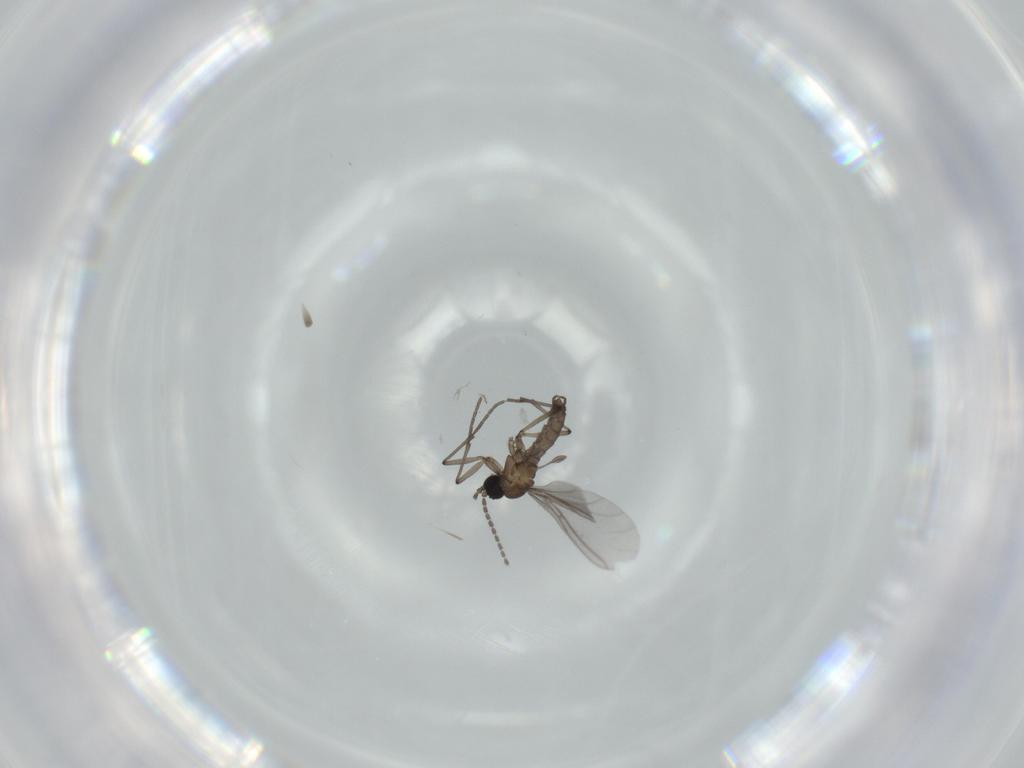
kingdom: Animalia
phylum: Arthropoda
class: Insecta
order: Diptera
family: Sciaridae
